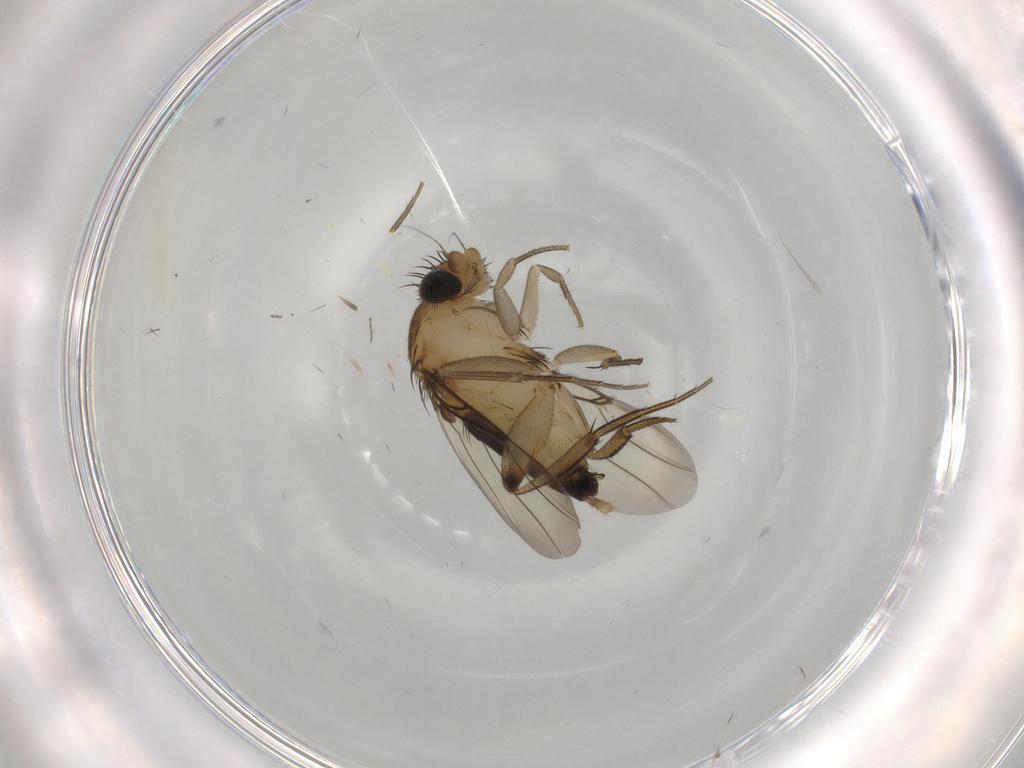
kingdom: Animalia
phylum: Arthropoda
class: Insecta
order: Diptera
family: Phoridae
